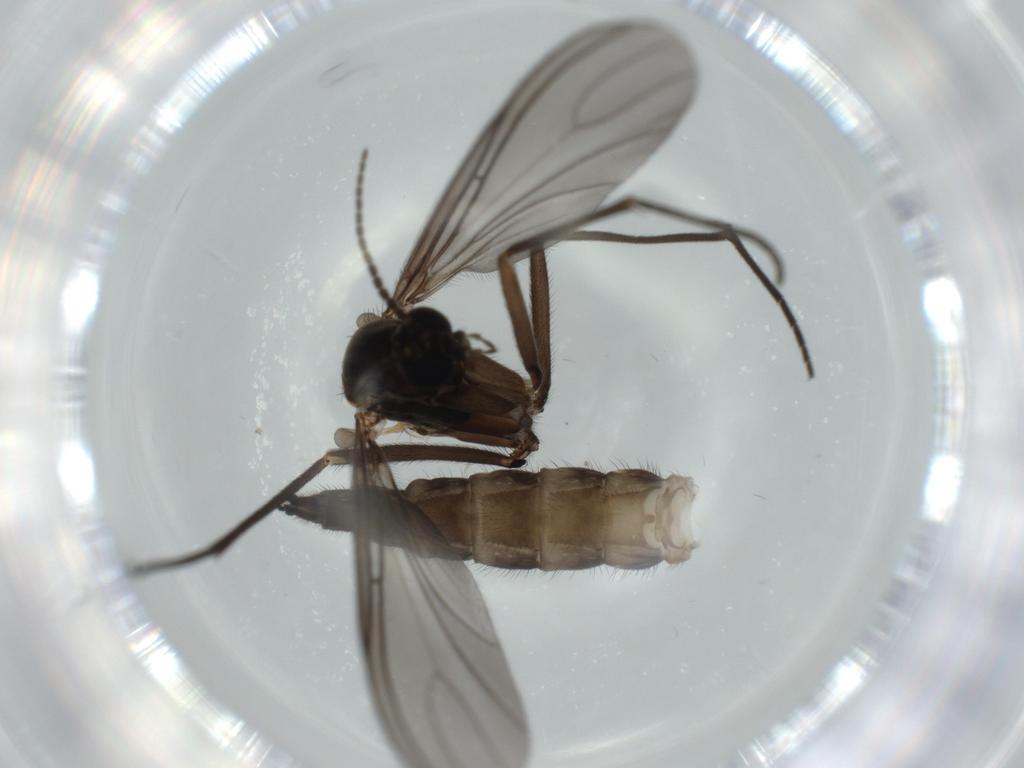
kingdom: Animalia
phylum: Arthropoda
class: Insecta
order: Diptera
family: Sciaridae
